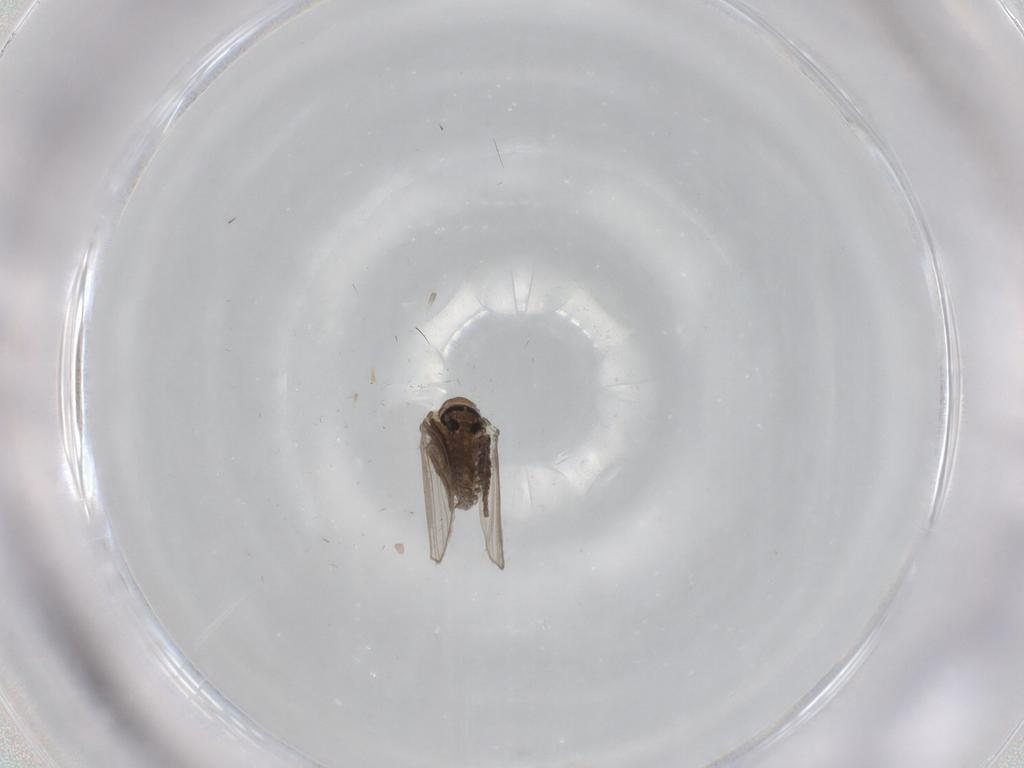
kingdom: Animalia
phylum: Arthropoda
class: Insecta
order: Diptera
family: Psychodidae
